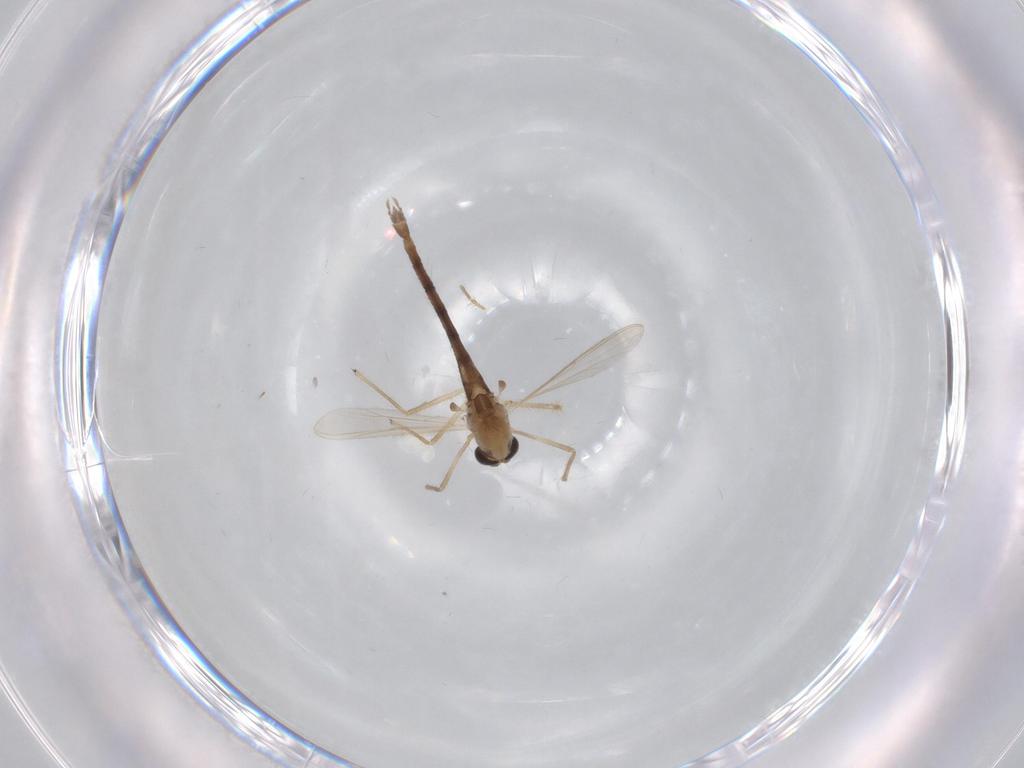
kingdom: Animalia
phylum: Arthropoda
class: Insecta
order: Diptera
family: Chironomidae
